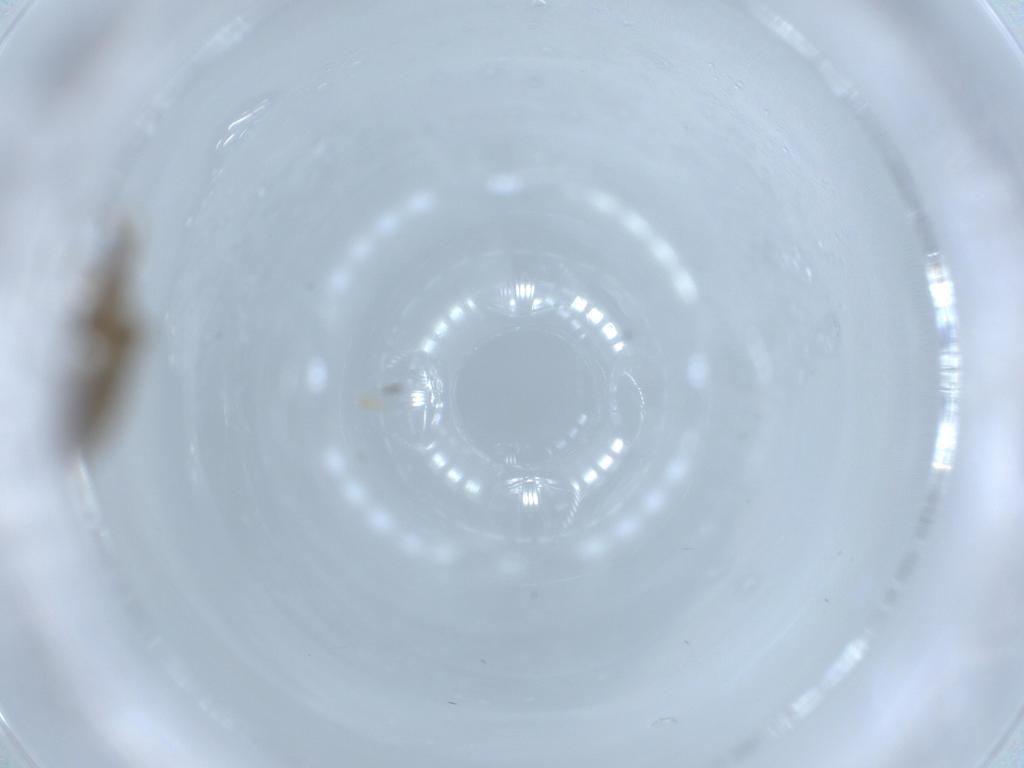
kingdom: Animalia
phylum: Arthropoda
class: Insecta
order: Neuroptera
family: Coniopterygidae
